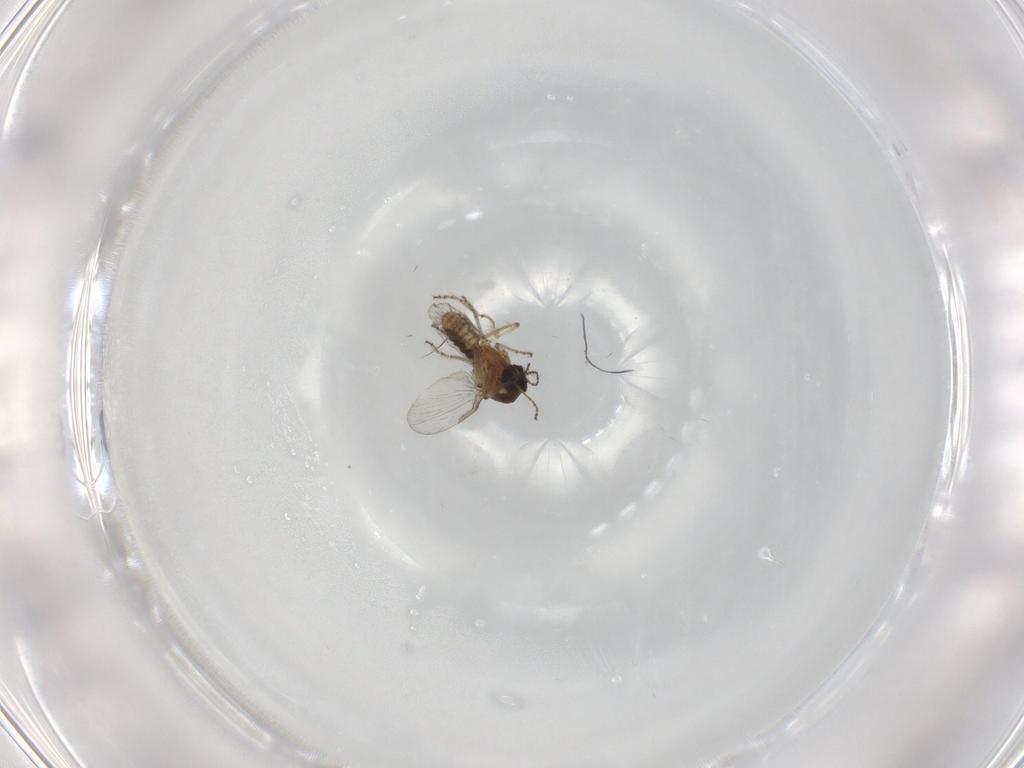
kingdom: Animalia
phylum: Arthropoda
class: Insecta
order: Diptera
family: Ceratopogonidae
